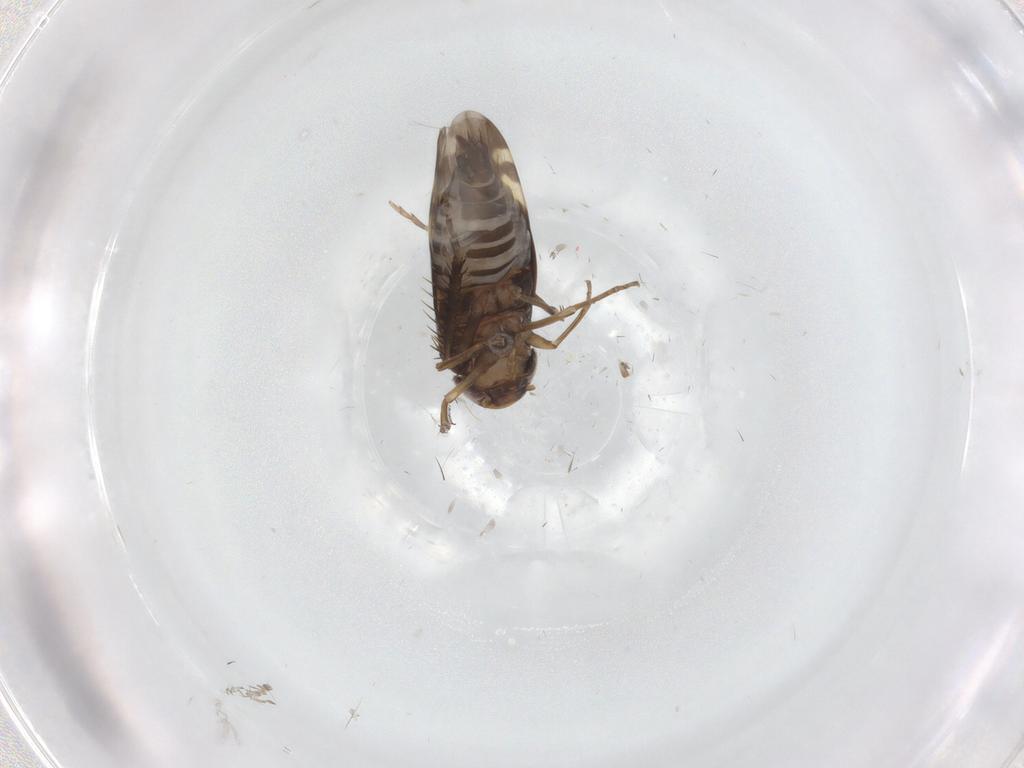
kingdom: Animalia
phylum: Arthropoda
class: Insecta
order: Hemiptera
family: Cicadellidae
